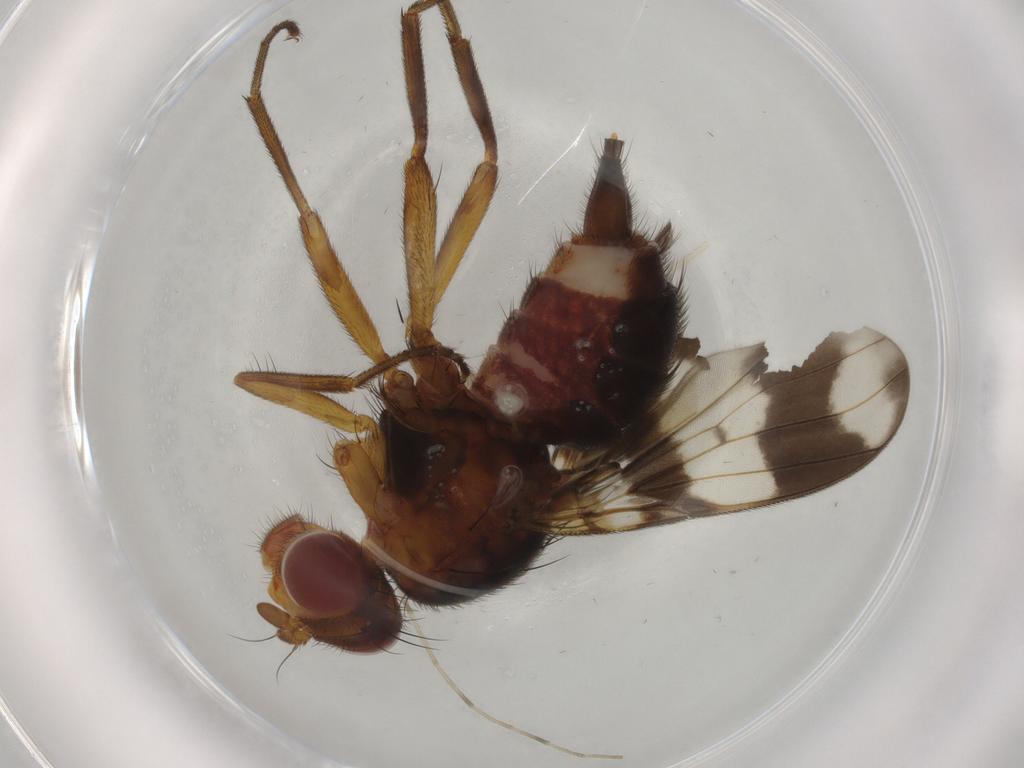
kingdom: Animalia
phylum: Arthropoda
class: Insecta
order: Diptera
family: Richardiidae
